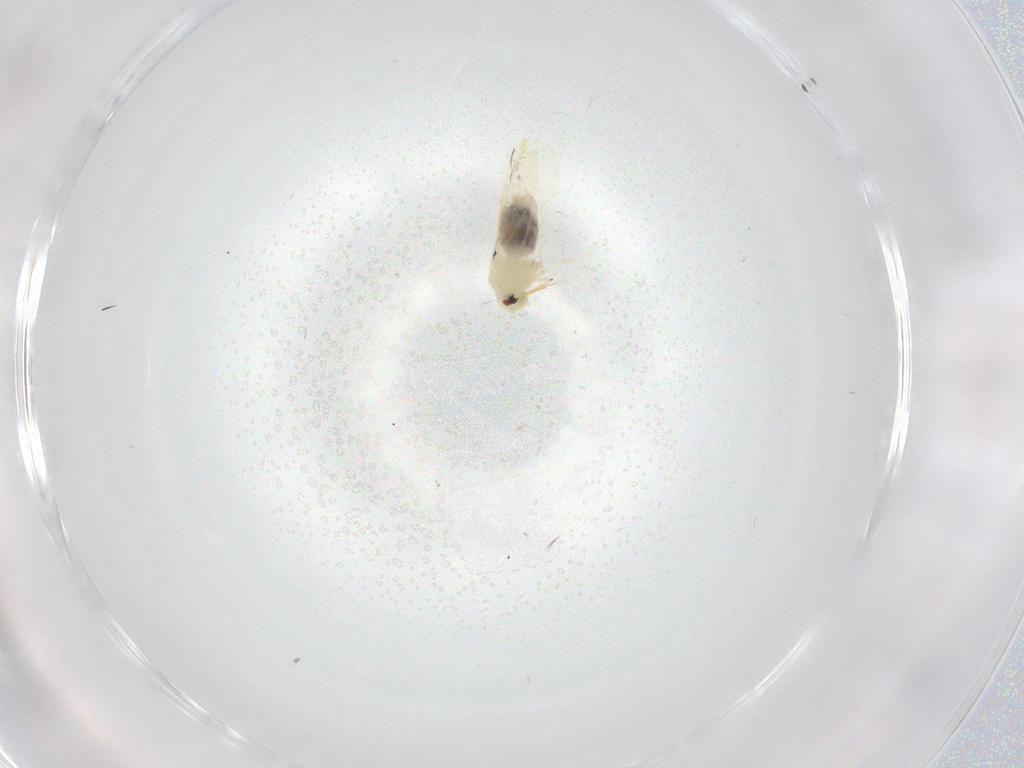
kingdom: Animalia
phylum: Arthropoda
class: Insecta
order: Hemiptera
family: Aleyrodidae
